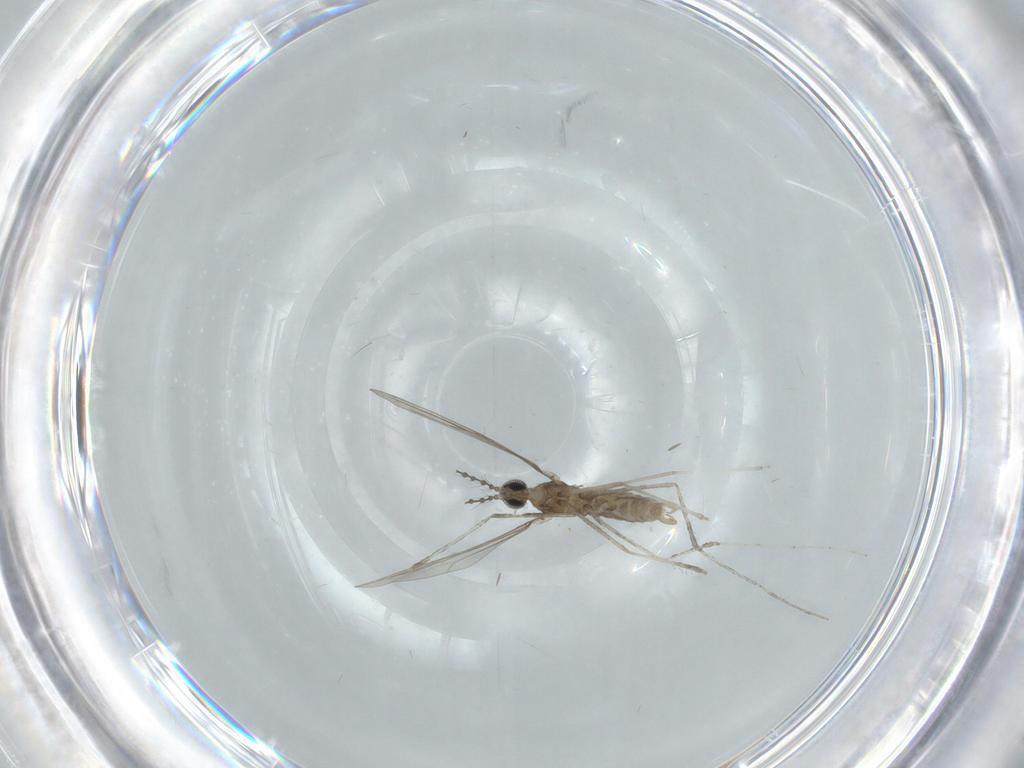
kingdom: Animalia
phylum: Arthropoda
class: Insecta
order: Diptera
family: Cecidomyiidae
